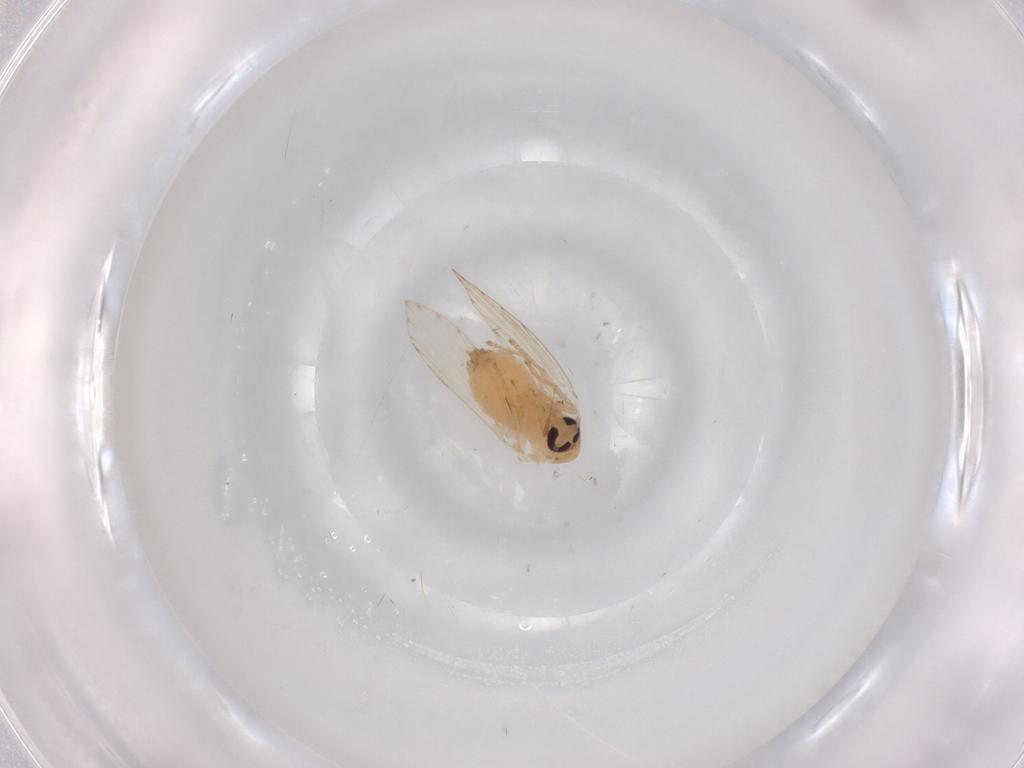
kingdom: Animalia
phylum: Arthropoda
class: Insecta
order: Diptera
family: Psychodidae
